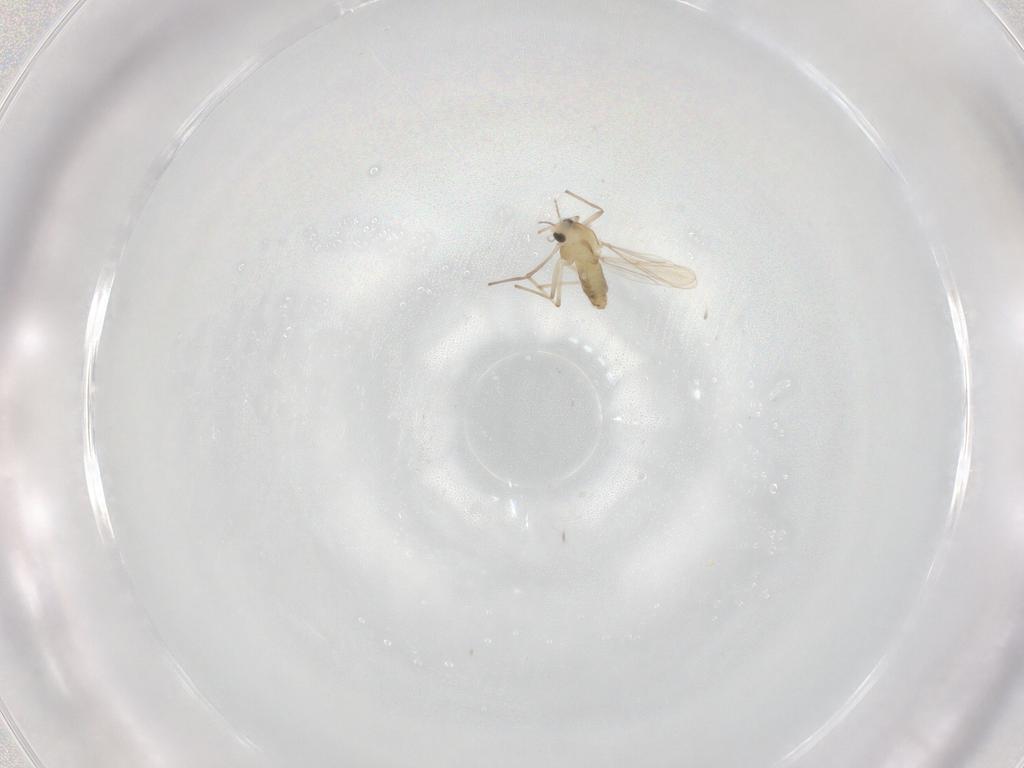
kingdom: Animalia
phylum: Arthropoda
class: Insecta
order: Diptera
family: Chironomidae
